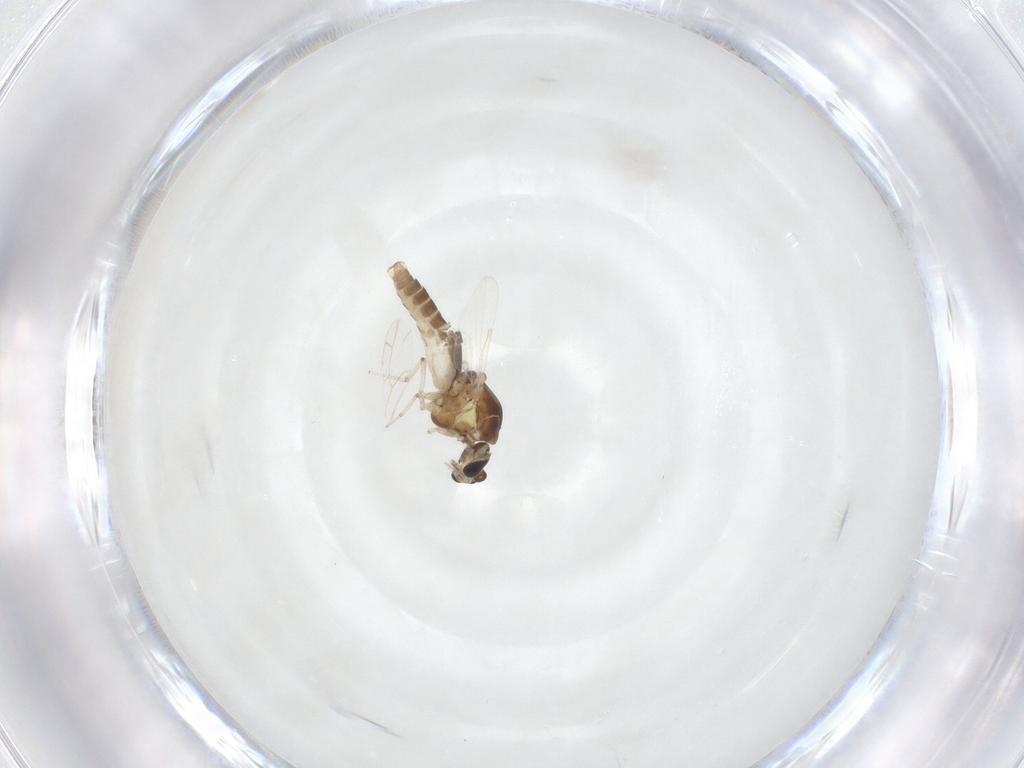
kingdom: Animalia
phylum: Arthropoda
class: Insecta
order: Diptera
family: Ceratopogonidae
